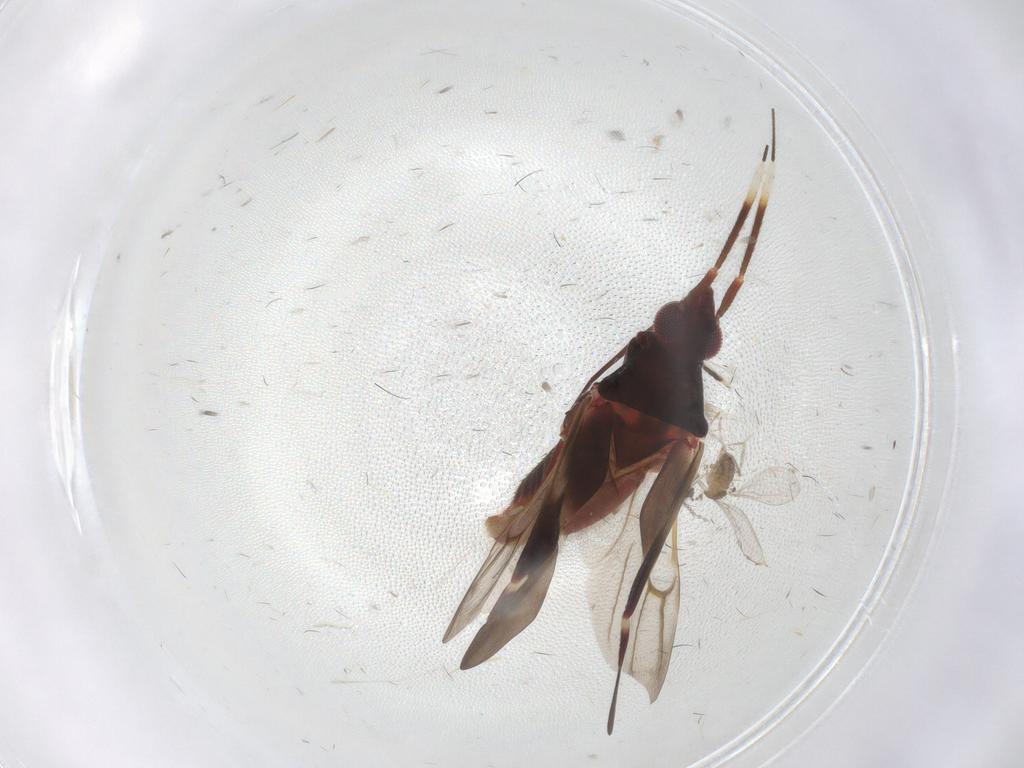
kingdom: Animalia
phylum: Arthropoda
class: Insecta
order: Hemiptera
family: Miridae
